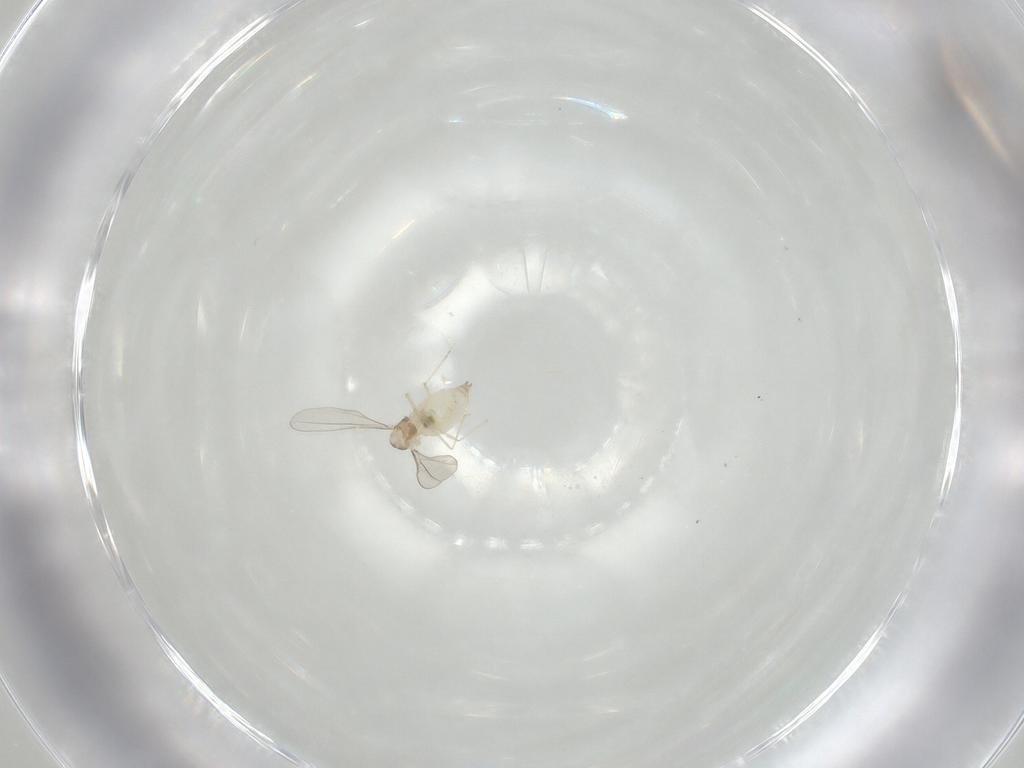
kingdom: Animalia
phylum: Arthropoda
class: Insecta
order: Diptera
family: Cecidomyiidae
